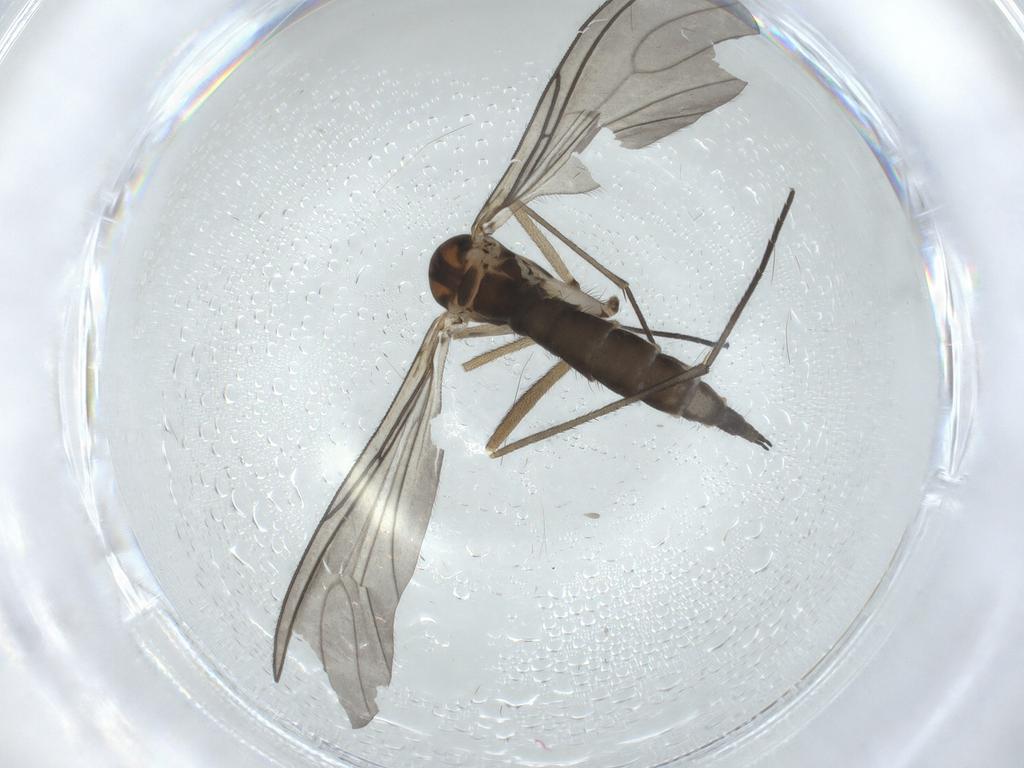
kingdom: Animalia
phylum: Arthropoda
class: Insecta
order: Diptera
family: Sciaridae
